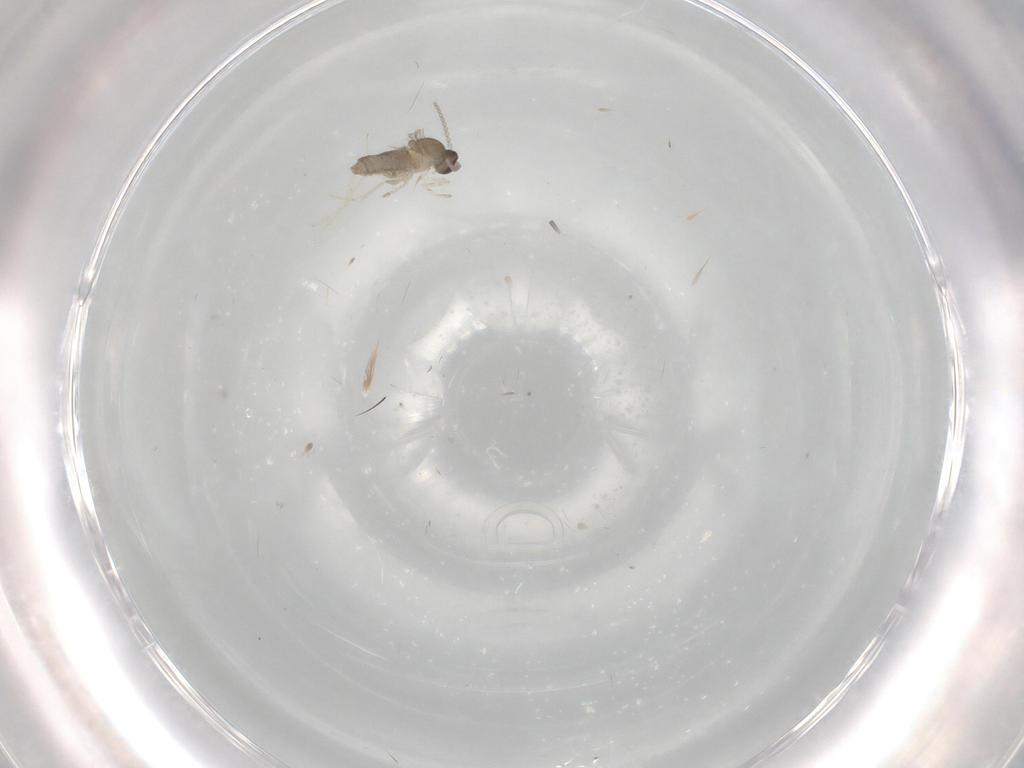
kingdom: Animalia
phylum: Arthropoda
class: Insecta
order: Diptera
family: Cecidomyiidae
